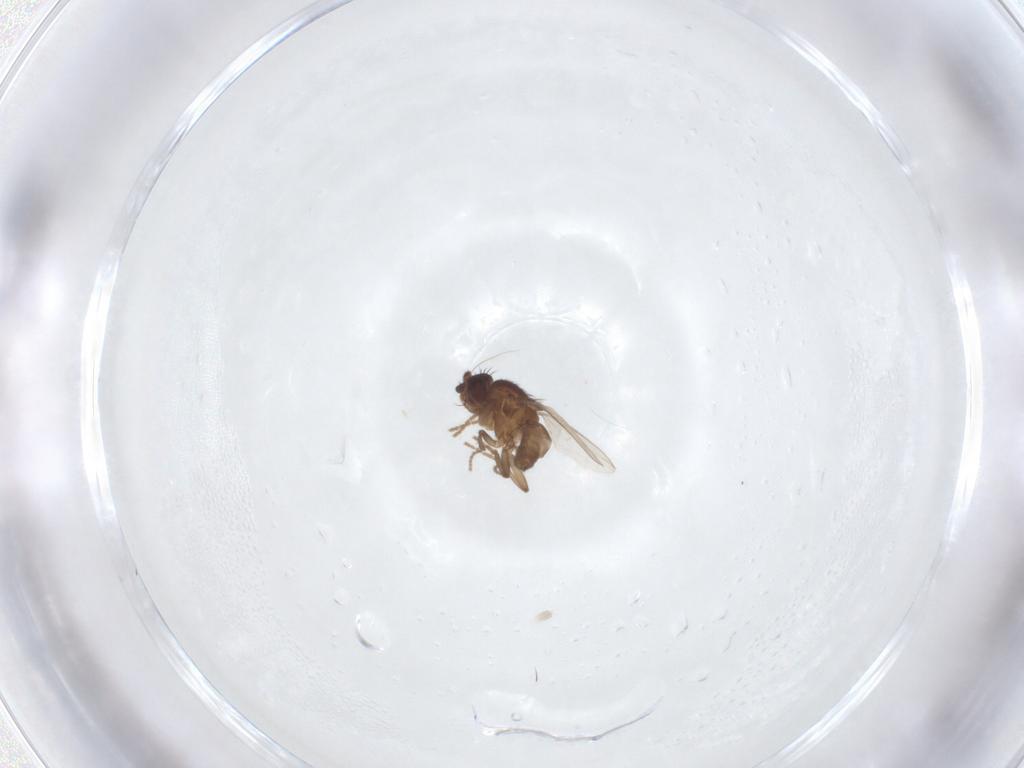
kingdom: Animalia
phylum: Arthropoda
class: Insecta
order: Diptera
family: Sphaeroceridae
